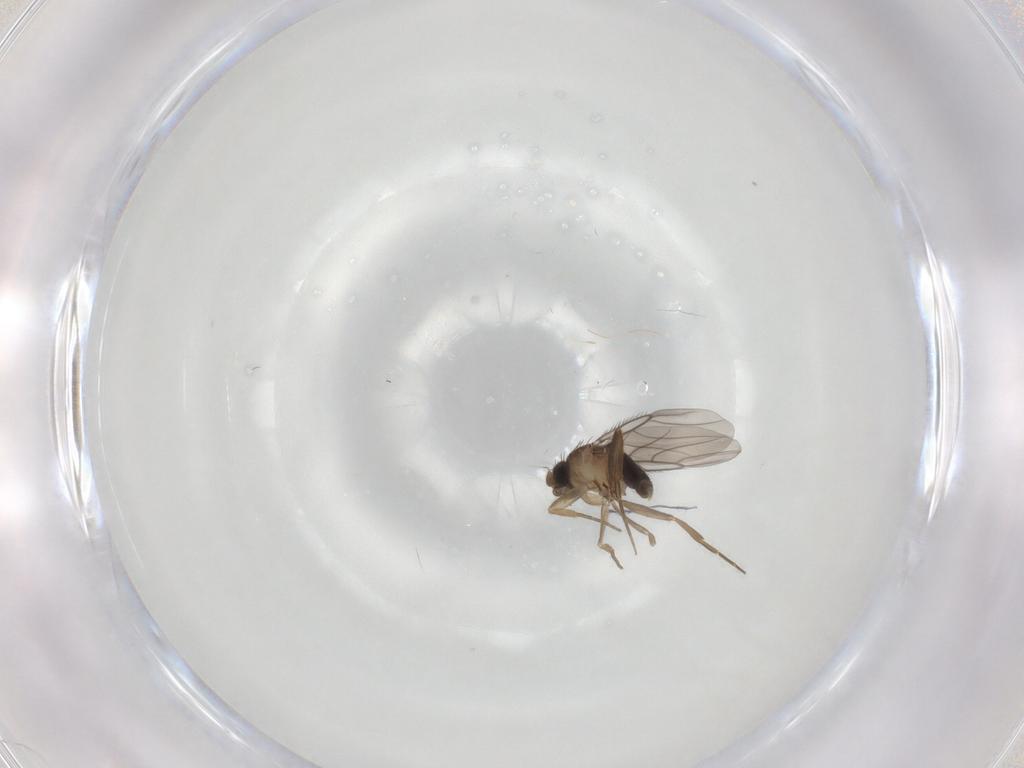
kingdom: Animalia
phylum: Arthropoda
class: Insecta
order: Diptera
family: Phoridae
